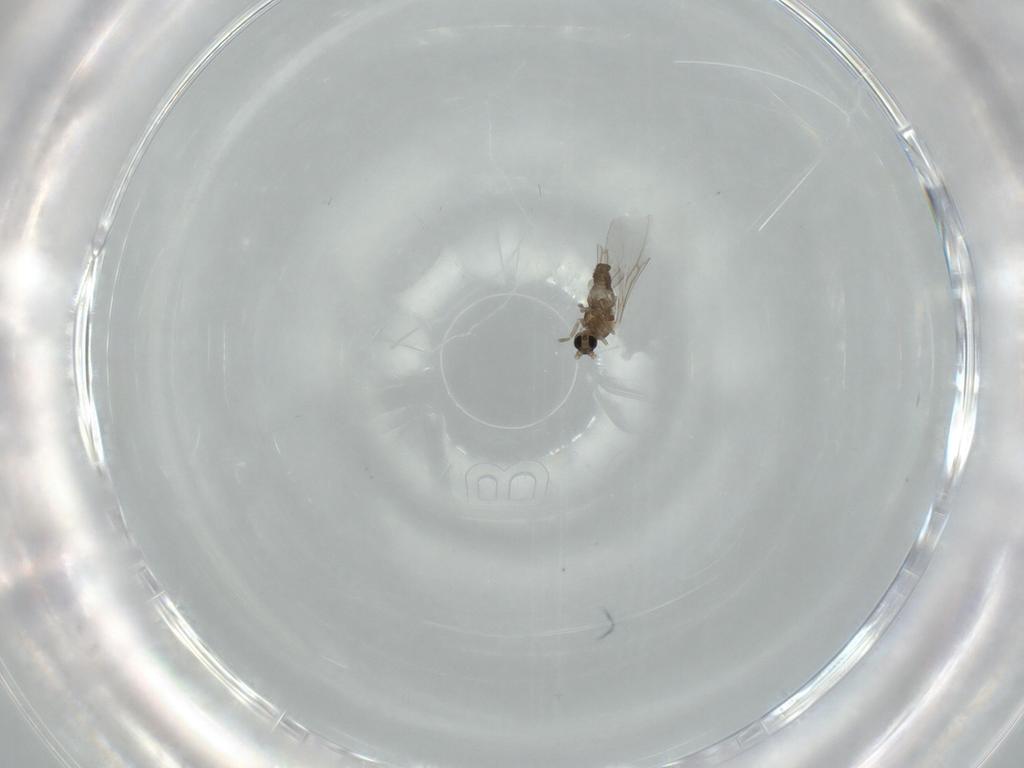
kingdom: Animalia
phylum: Arthropoda
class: Insecta
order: Diptera
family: Cecidomyiidae
